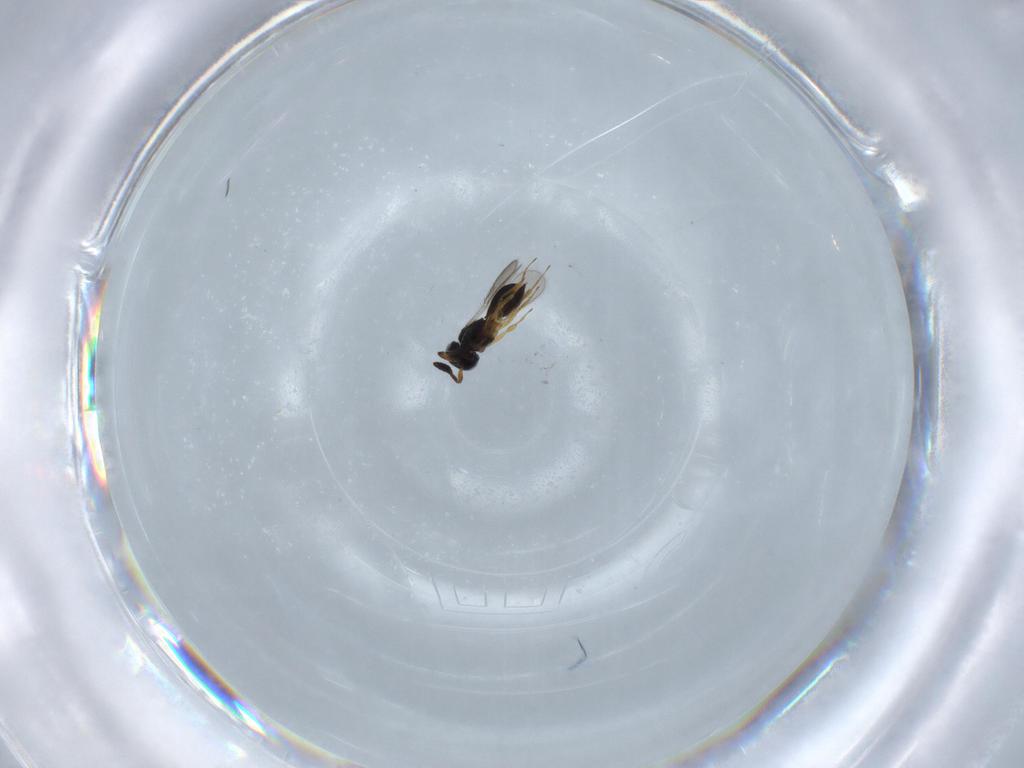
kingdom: Animalia
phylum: Arthropoda
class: Insecta
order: Hymenoptera
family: Scelionidae
